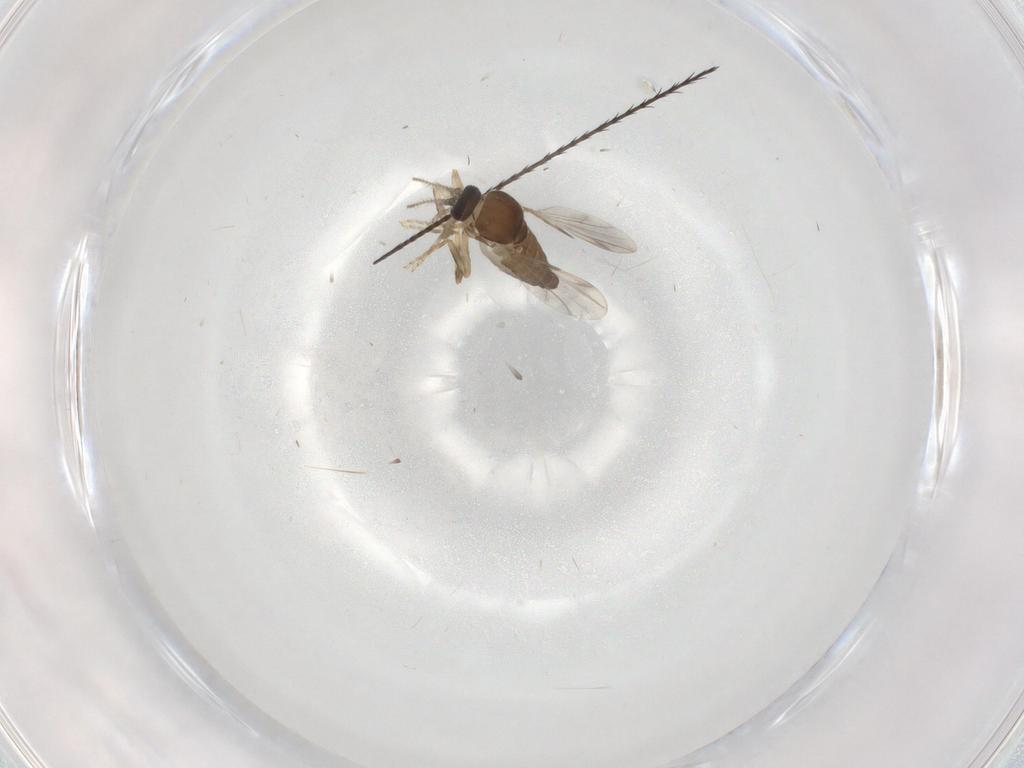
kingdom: Animalia
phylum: Arthropoda
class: Insecta
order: Diptera
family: Ceratopogonidae
